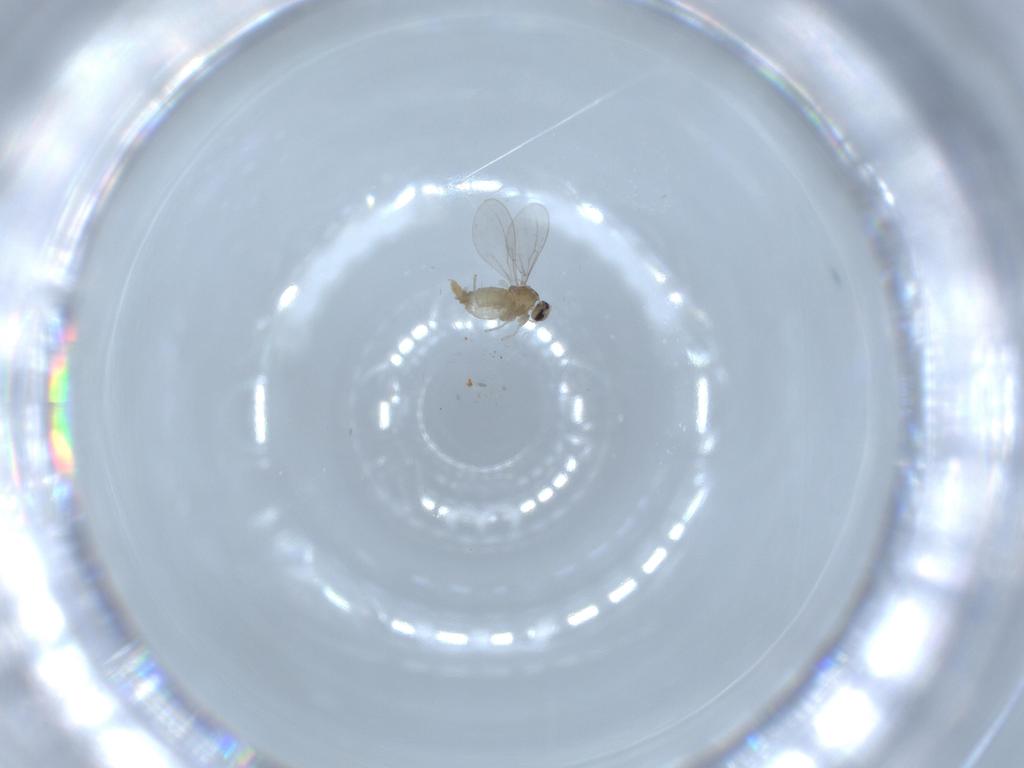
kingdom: Animalia
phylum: Arthropoda
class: Insecta
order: Diptera
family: Cecidomyiidae
